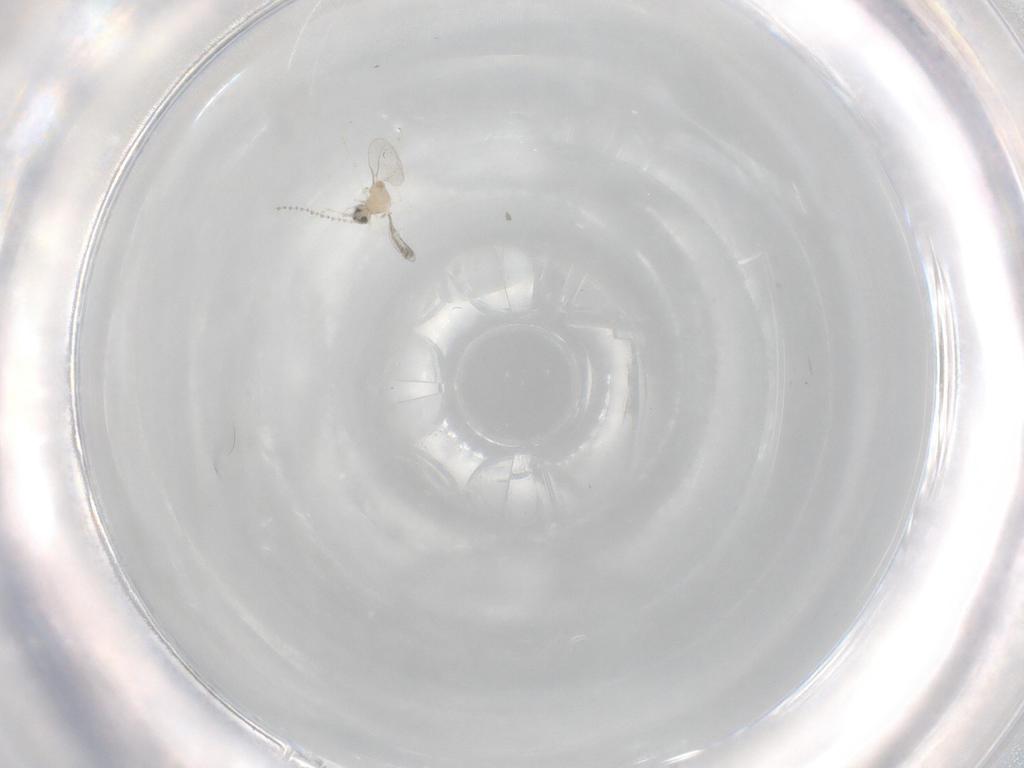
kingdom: Animalia
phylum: Arthropoda
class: Insecta
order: Diptera
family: Cecidomyiidae
